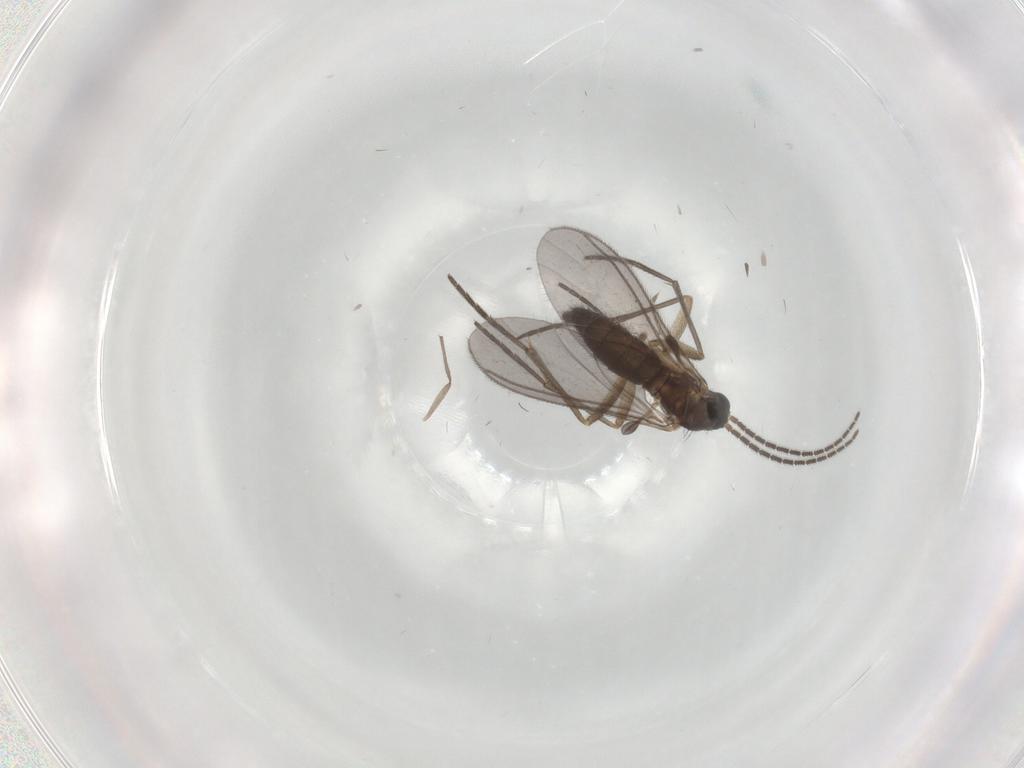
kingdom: Animalia
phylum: Arthropoda
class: Insecta
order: Diptera
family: Sciaridae
